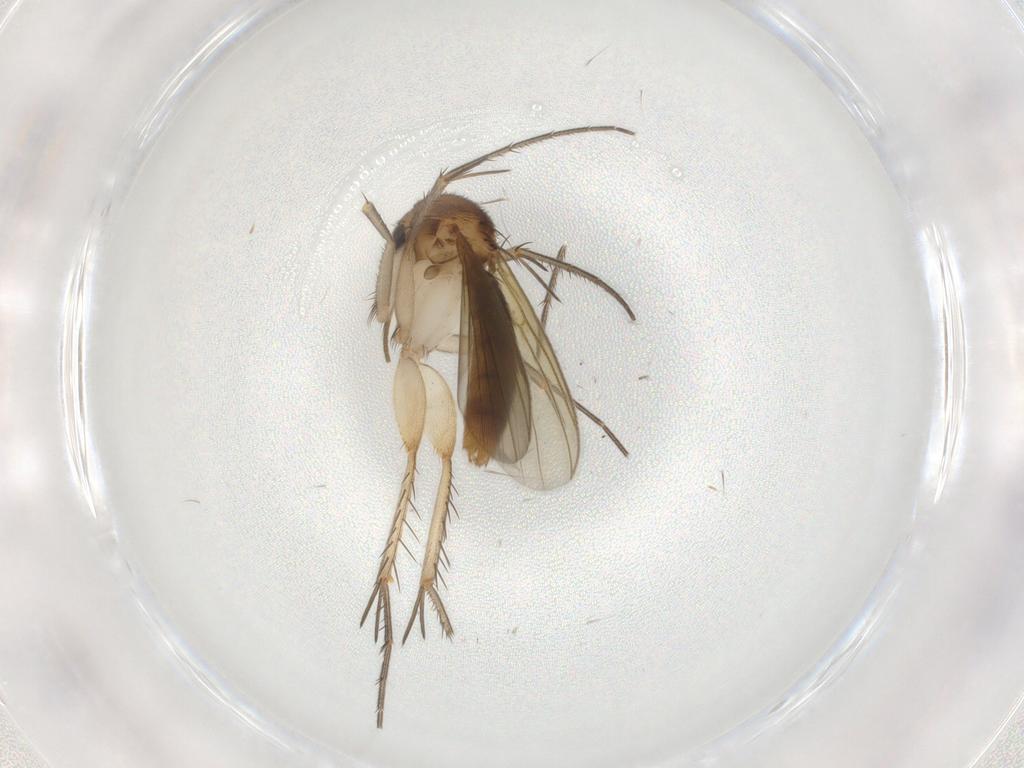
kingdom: Animalia
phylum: Arthropoda
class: Insecta
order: Diptera
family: Mycetophilidae
